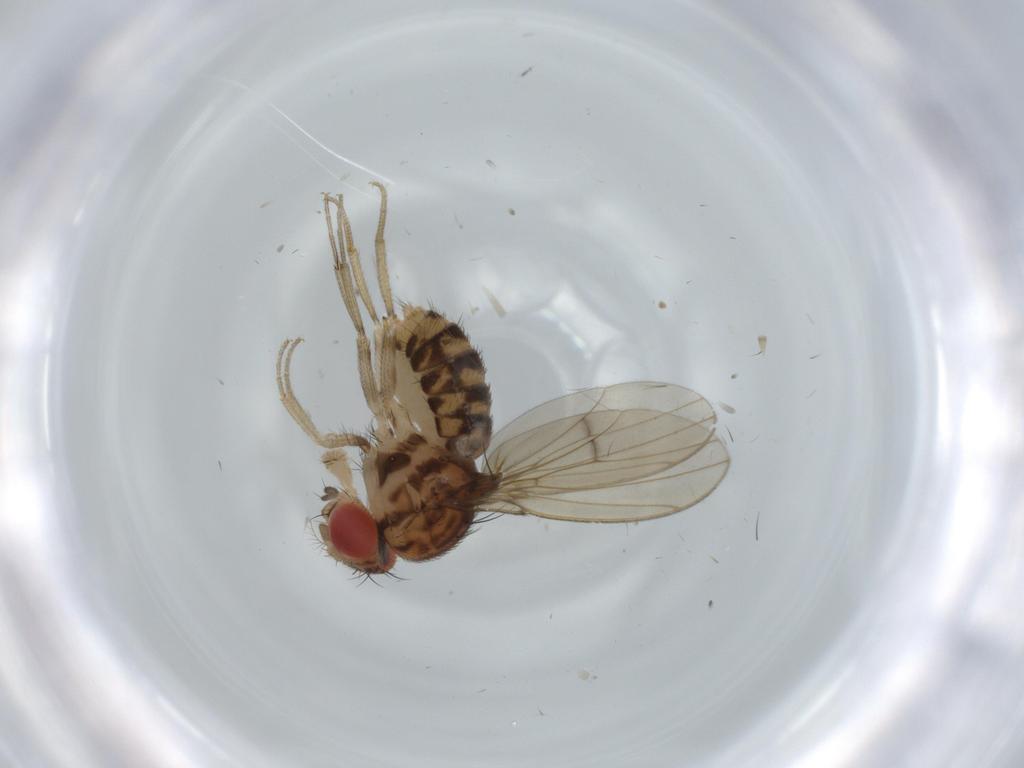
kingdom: Animalia
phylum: Arthropoda
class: Insecta
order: Diptera
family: Drosophilidae
